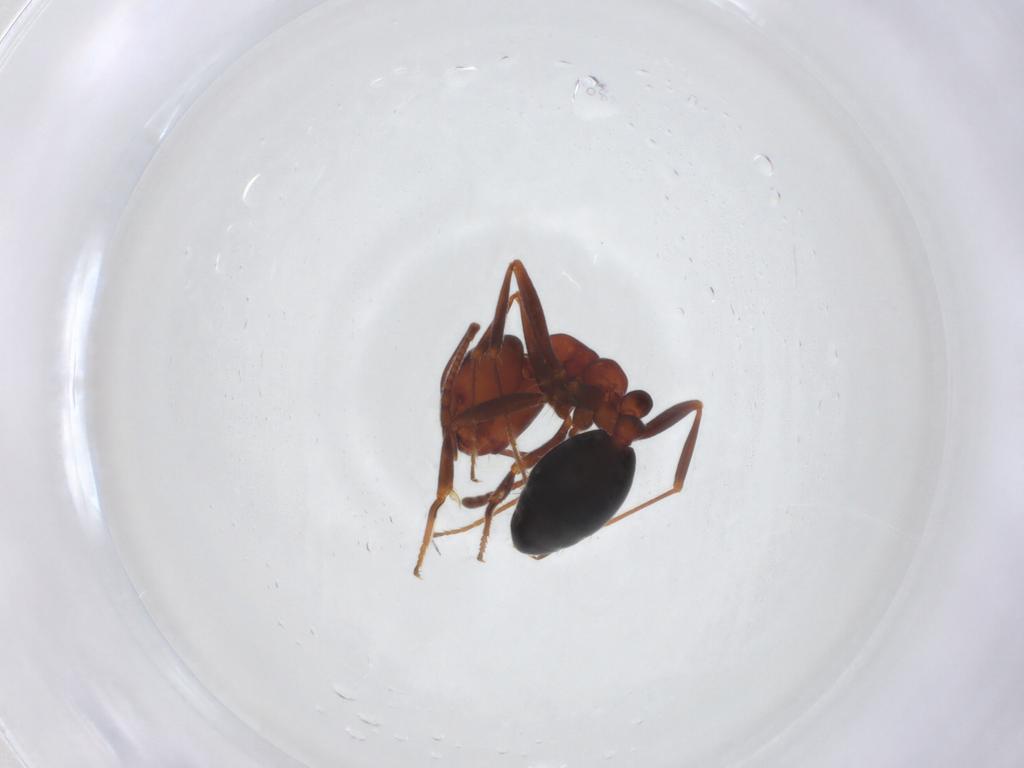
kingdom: Animalia
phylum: Arthropoda
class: Insecta
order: Hymenoptera
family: Formicidae
